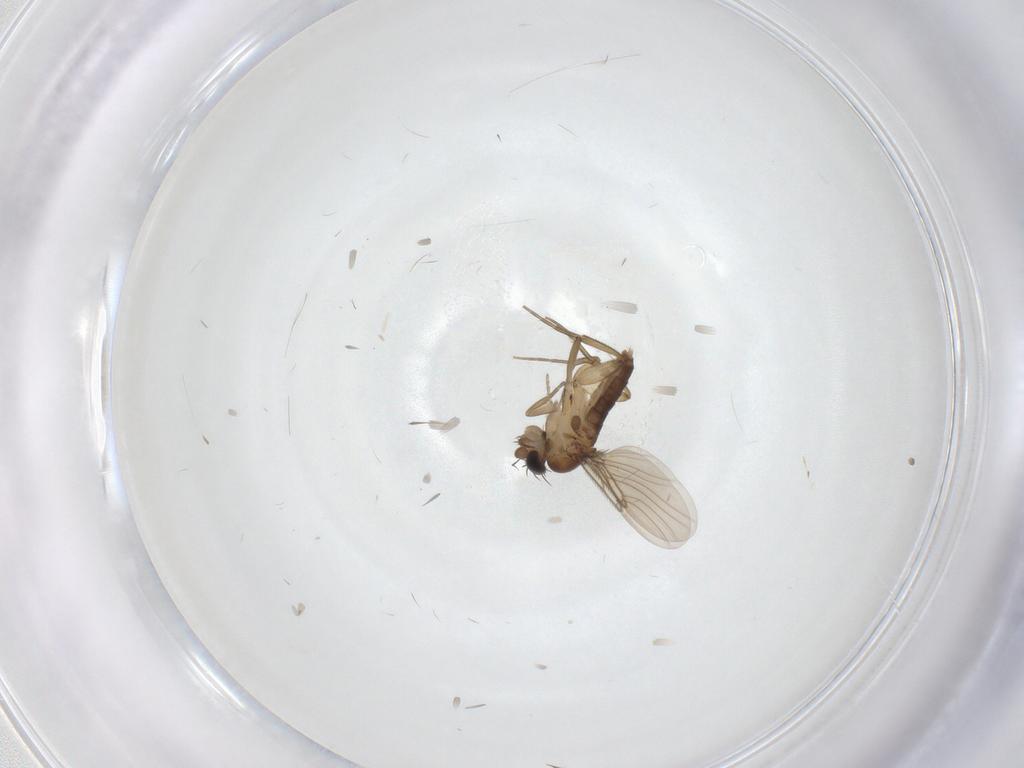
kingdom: Animalia
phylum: Arthropoda
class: Insecta
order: Diptera
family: Phoridae
